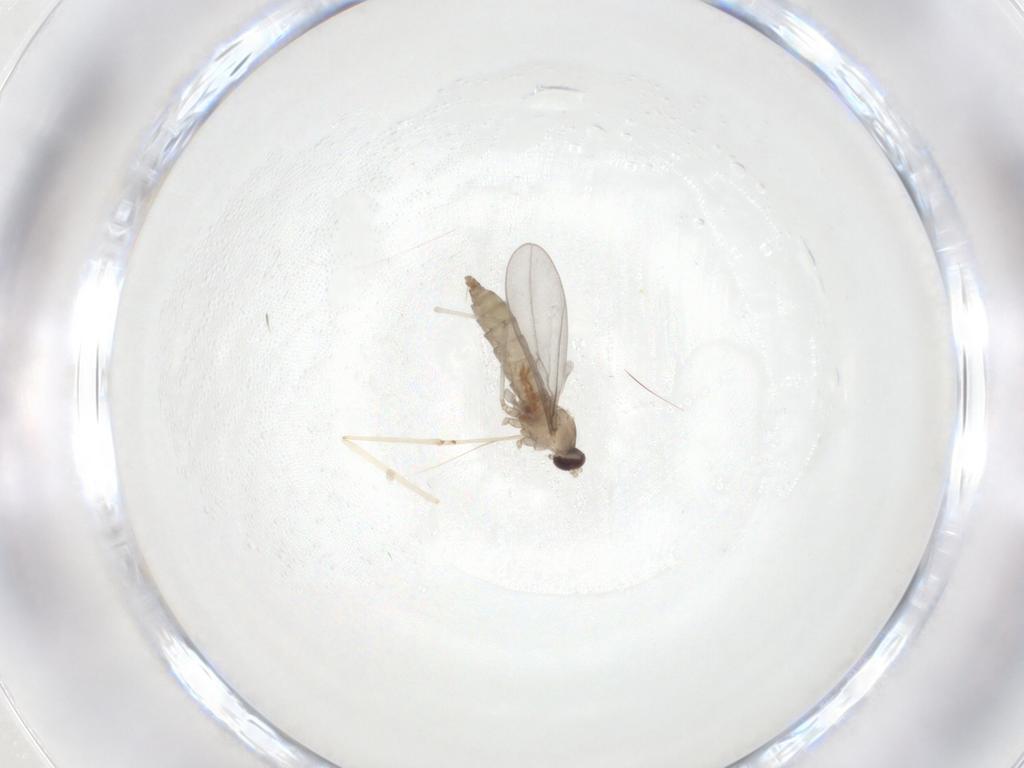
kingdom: Animalia
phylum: Arthropoda
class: Insecta
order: Diptera
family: Cecidomyiidae
